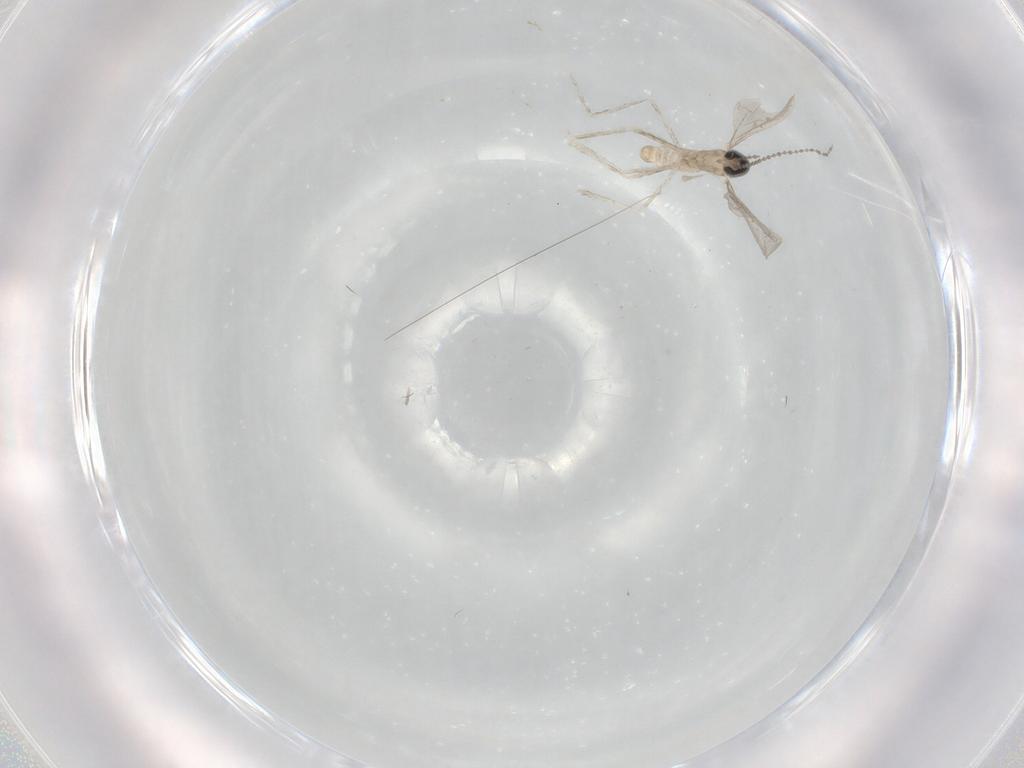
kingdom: Animalia
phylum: Arthropoda
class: Insecta
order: Diptera
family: Cecidomyiidae
